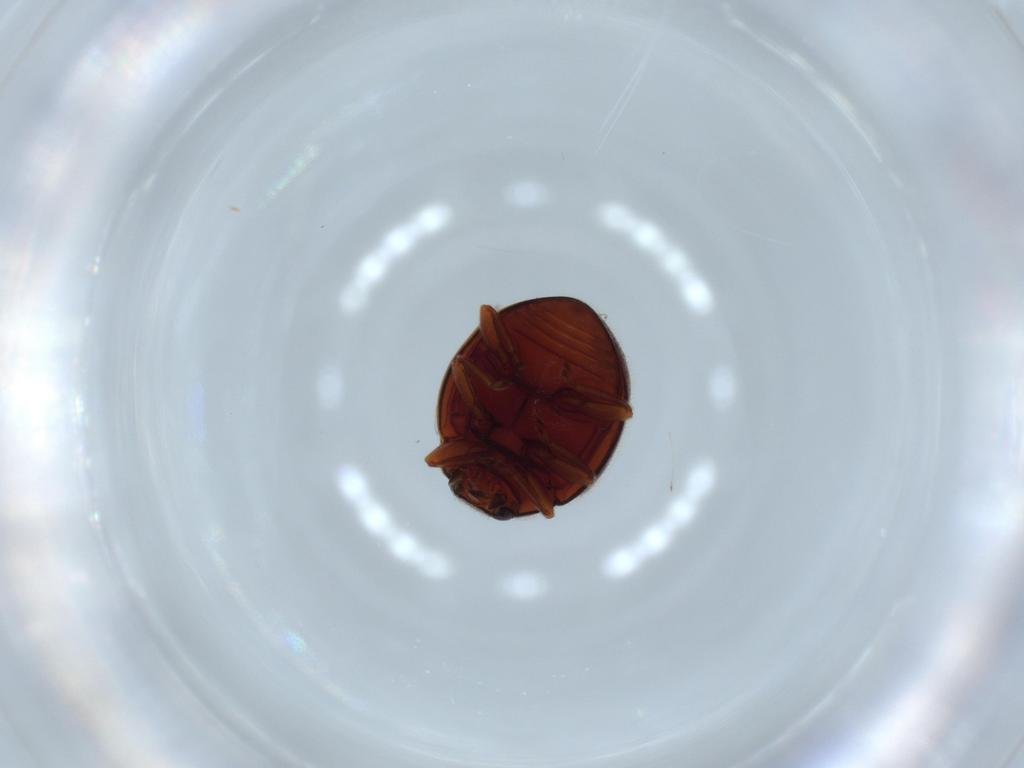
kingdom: Animalia
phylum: Arthropoda
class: Insecta
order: Coleoptera
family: Coccinellidae
